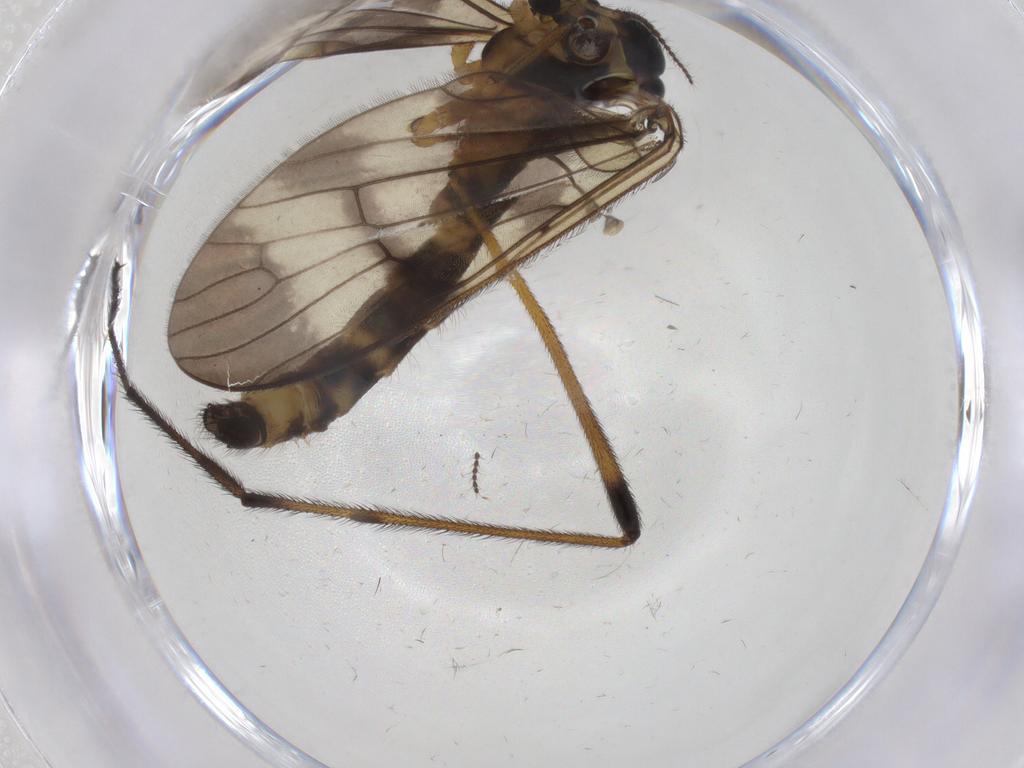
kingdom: Animalia
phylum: Arthropoda
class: Insecta
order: Diptera
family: Limoniidae
